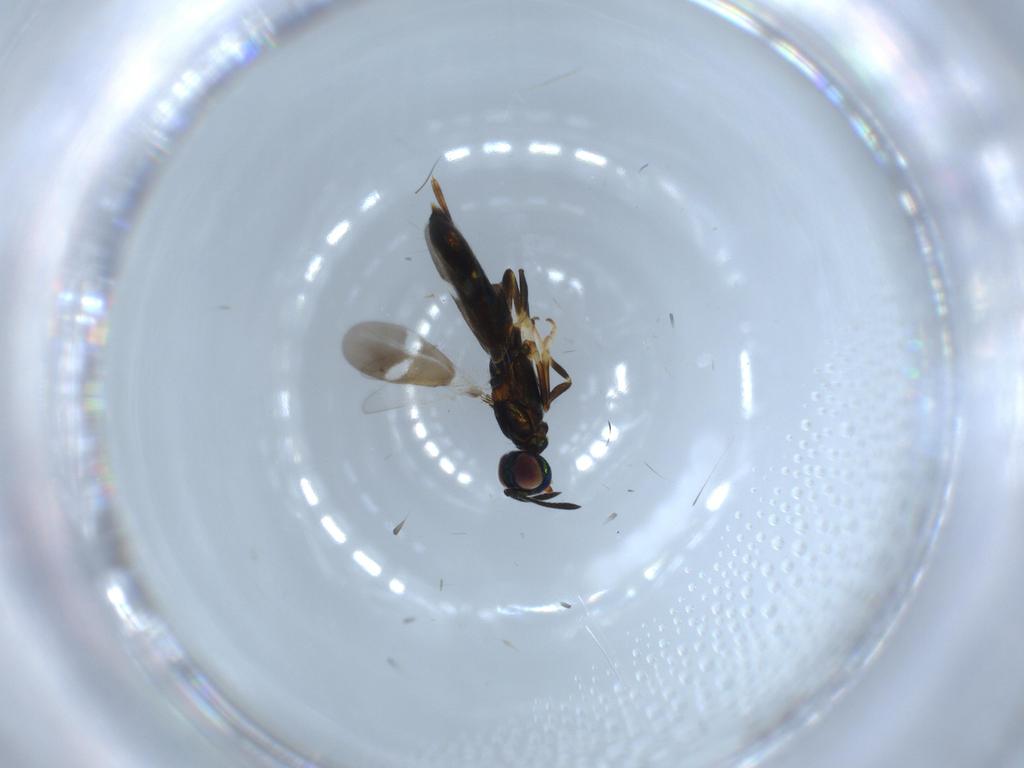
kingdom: Animalia
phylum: Arthropoda
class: Insecta
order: Hymenoptera
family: Eupelmidae
